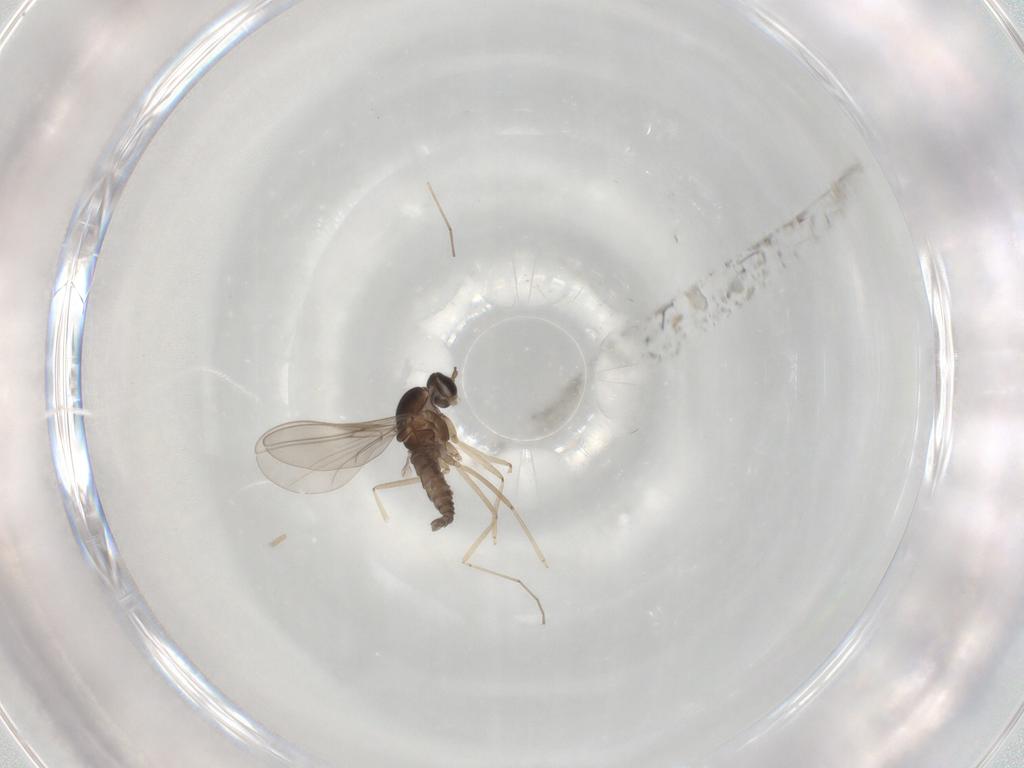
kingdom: Animalia
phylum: Arthropoda
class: Insecta
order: Diptera
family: Cecidomyiidae
